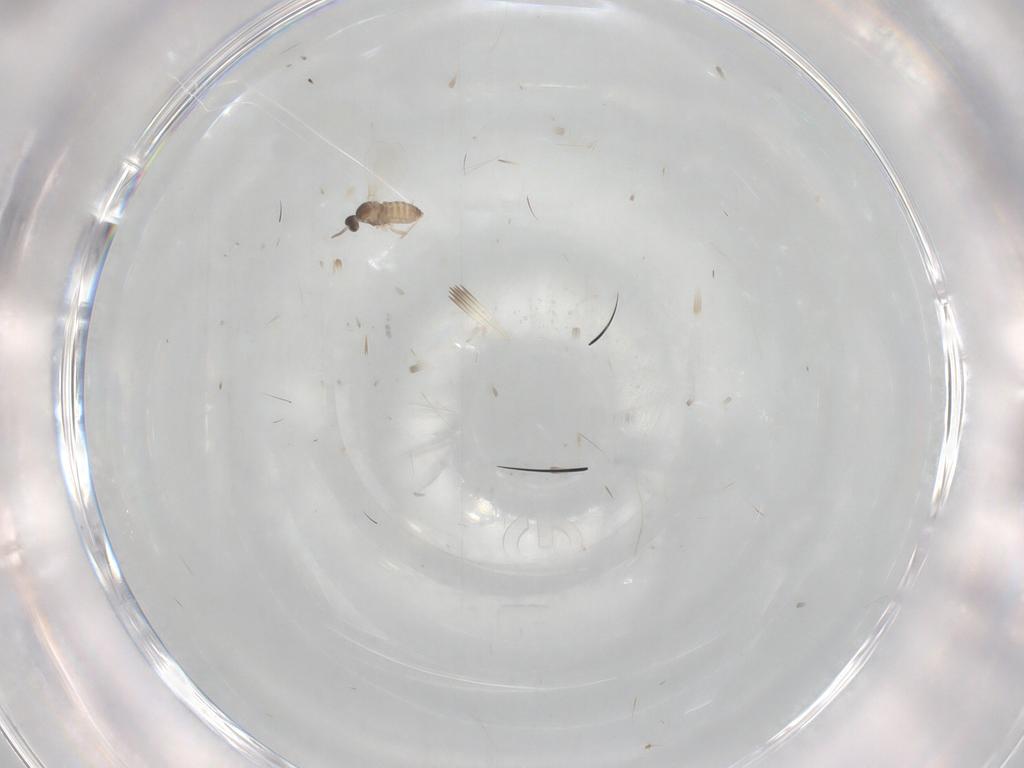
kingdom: Animalia
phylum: Arthropoda
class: Insecta
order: Diptera
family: Cecidomyiidae
